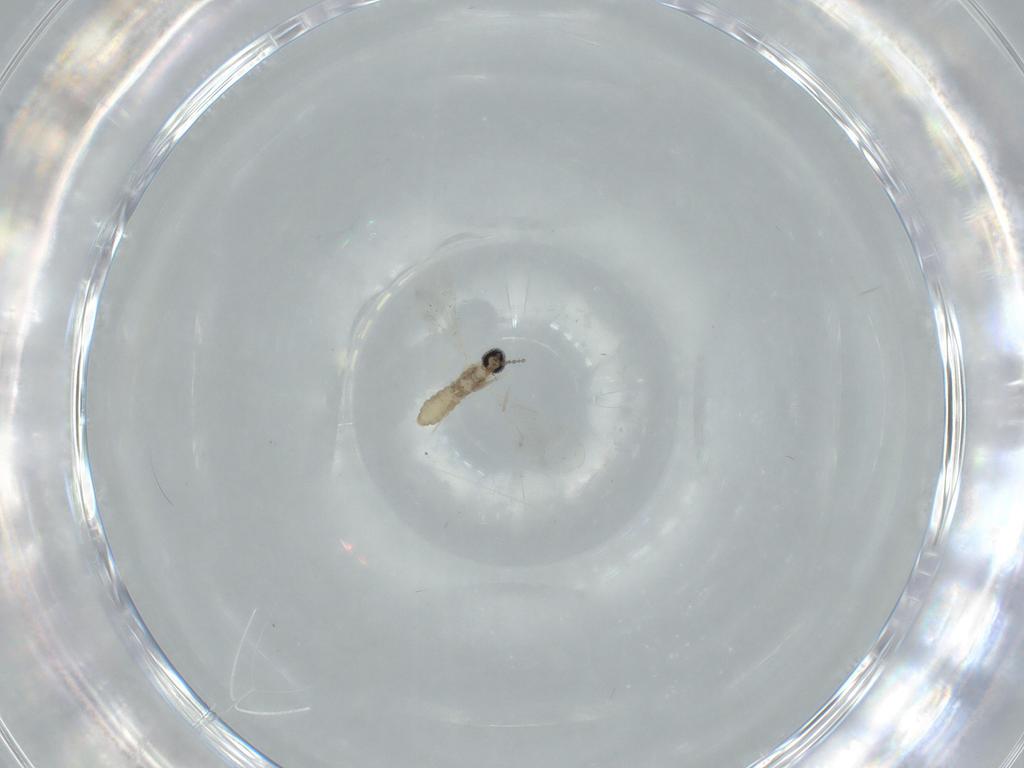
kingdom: Animalia
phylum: Arthropoda
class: Insecta
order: Diptera
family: Cecidomyiidae
